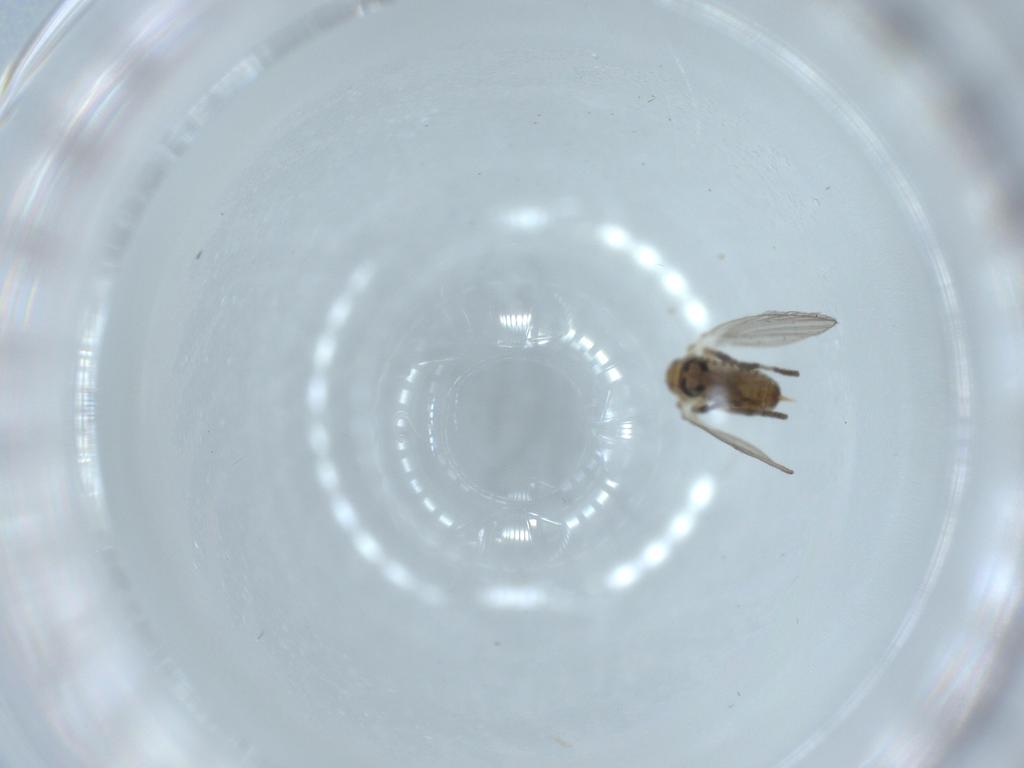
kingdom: Animalia
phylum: Arthropoda
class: Insecta
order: Diptera
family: Psychodidae
